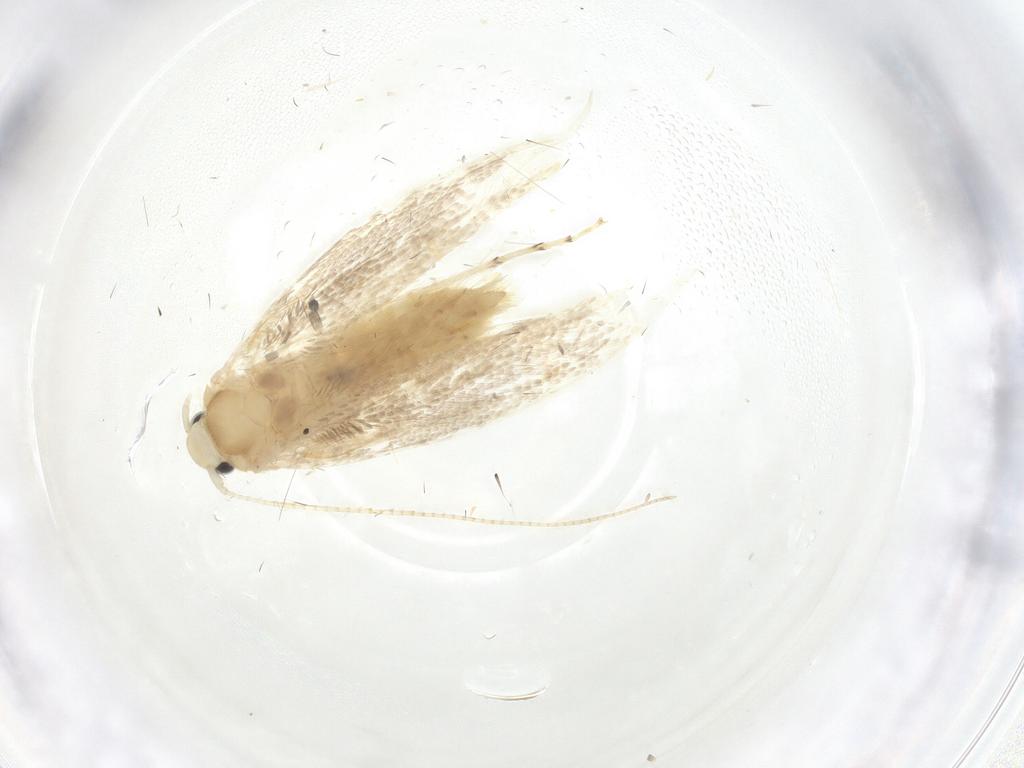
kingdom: Animalia
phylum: Arthropoda
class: Insecta
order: Lepidoptera
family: Gracillariidae
